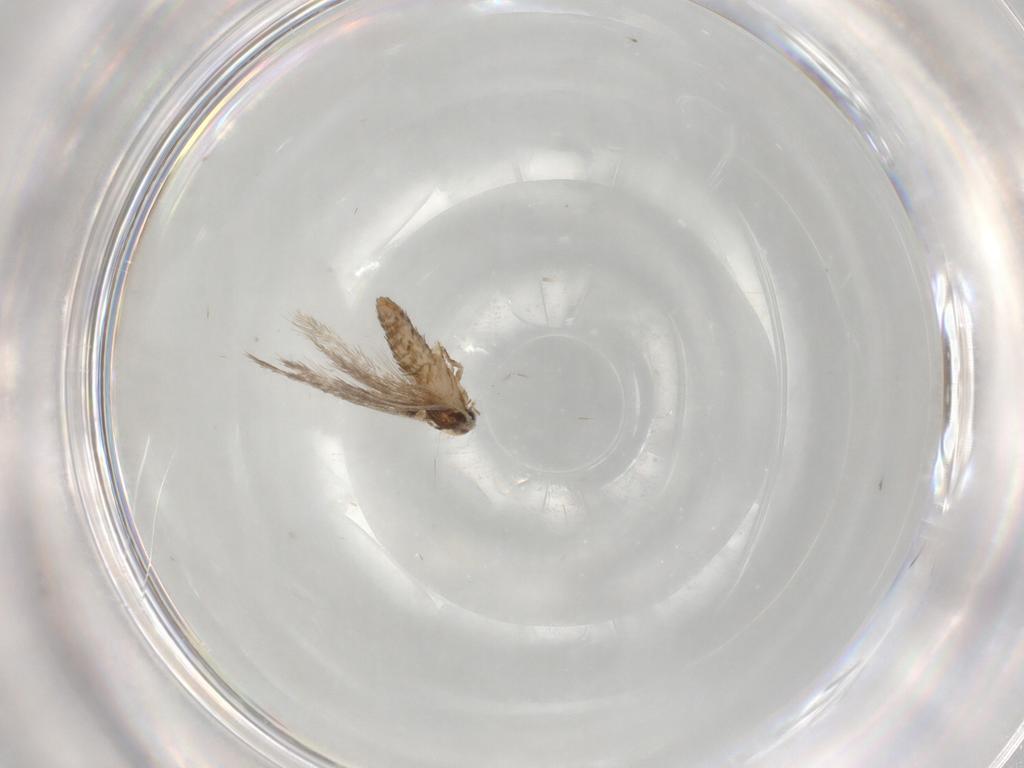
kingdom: Animalia
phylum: Arthropoda
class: Insecta
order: Lepidoptera
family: Nepticulidae
